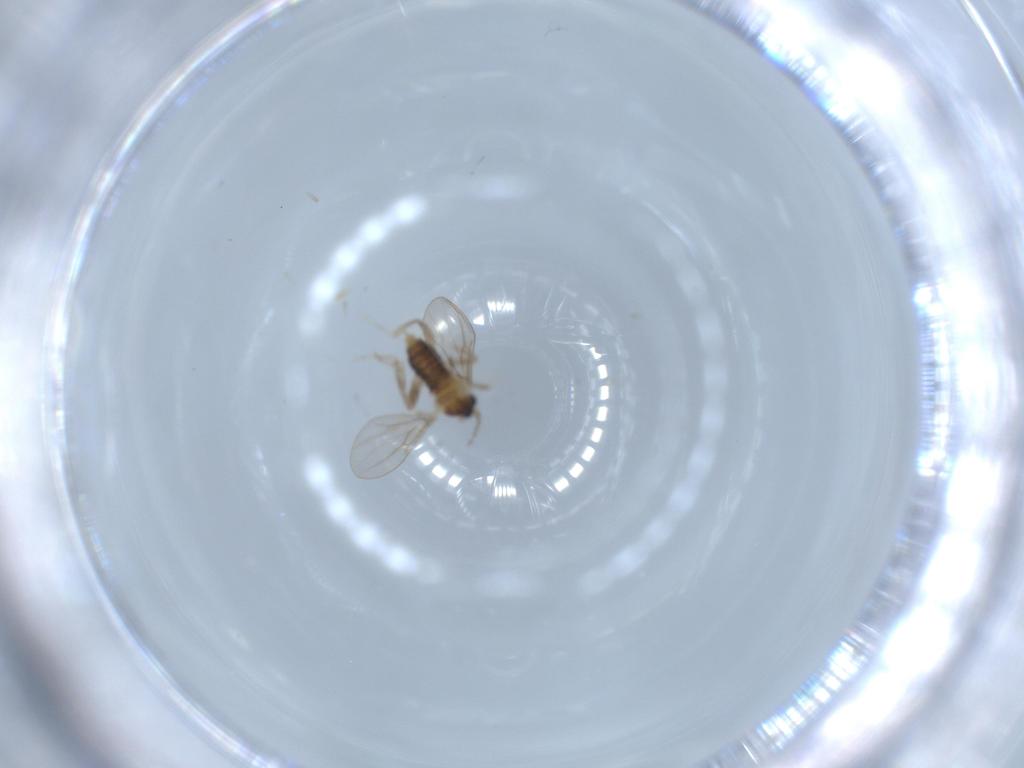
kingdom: Animalia
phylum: Arthropoda
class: Insecta
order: Diptera
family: Cecidomyiidae
